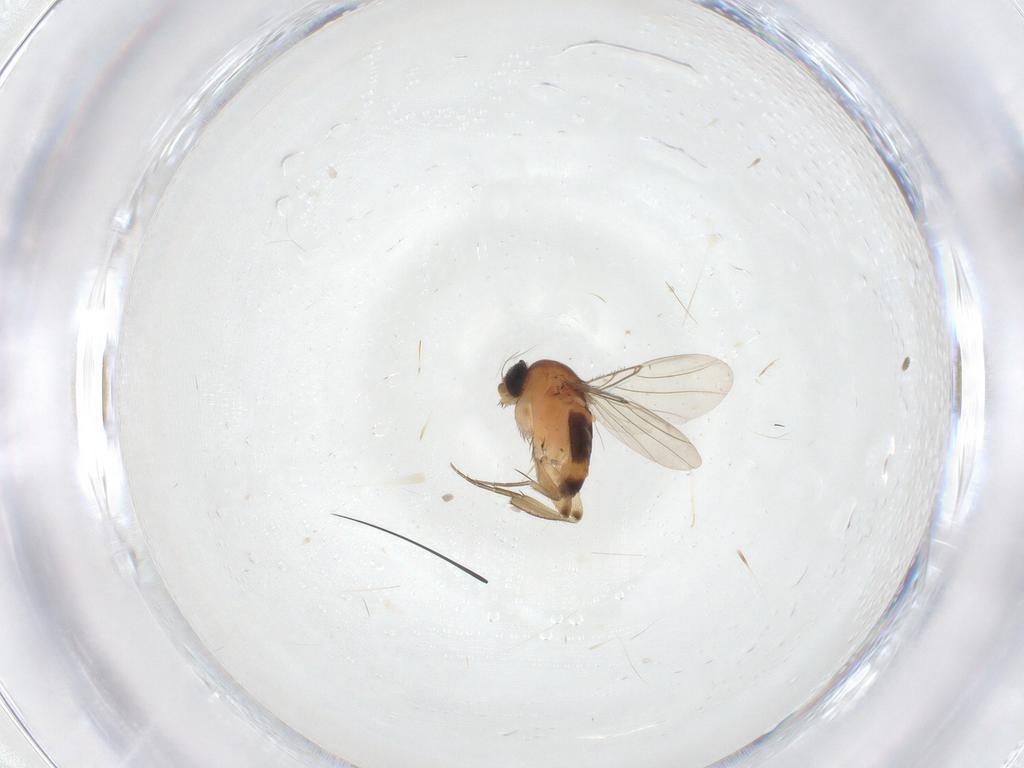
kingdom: Animalia
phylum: Arthropoda
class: Insecta
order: Diptera
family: Phoridae
